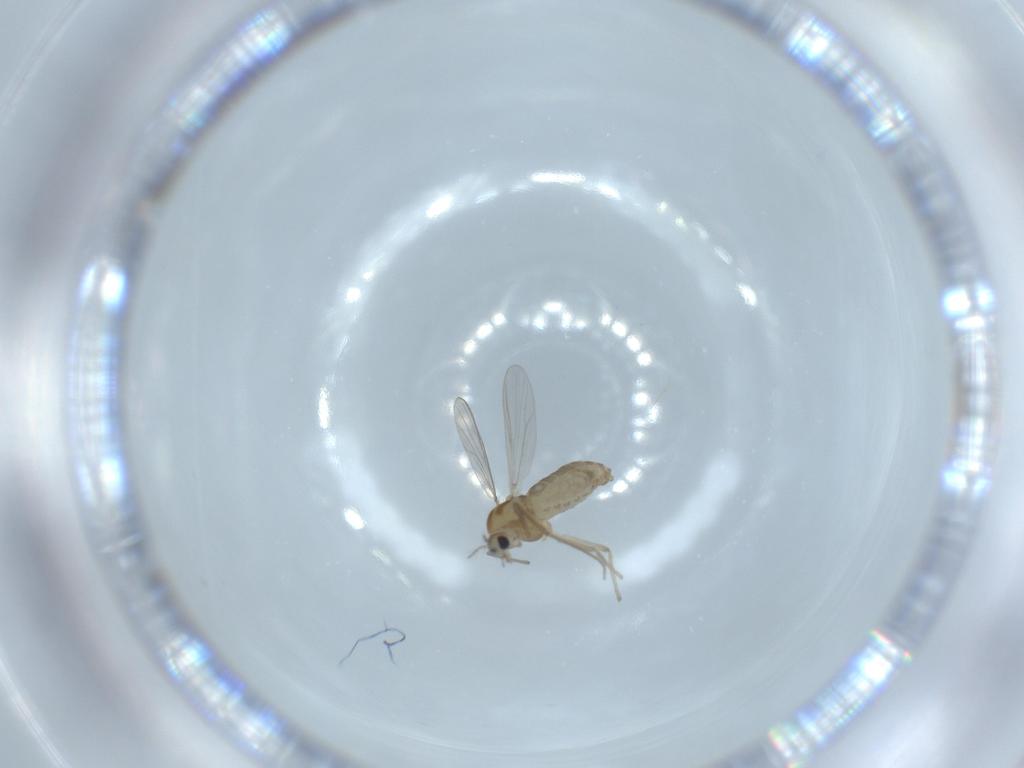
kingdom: Animalia
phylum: Arthropoda
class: Insecta
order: Diptera
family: Chironomidae
